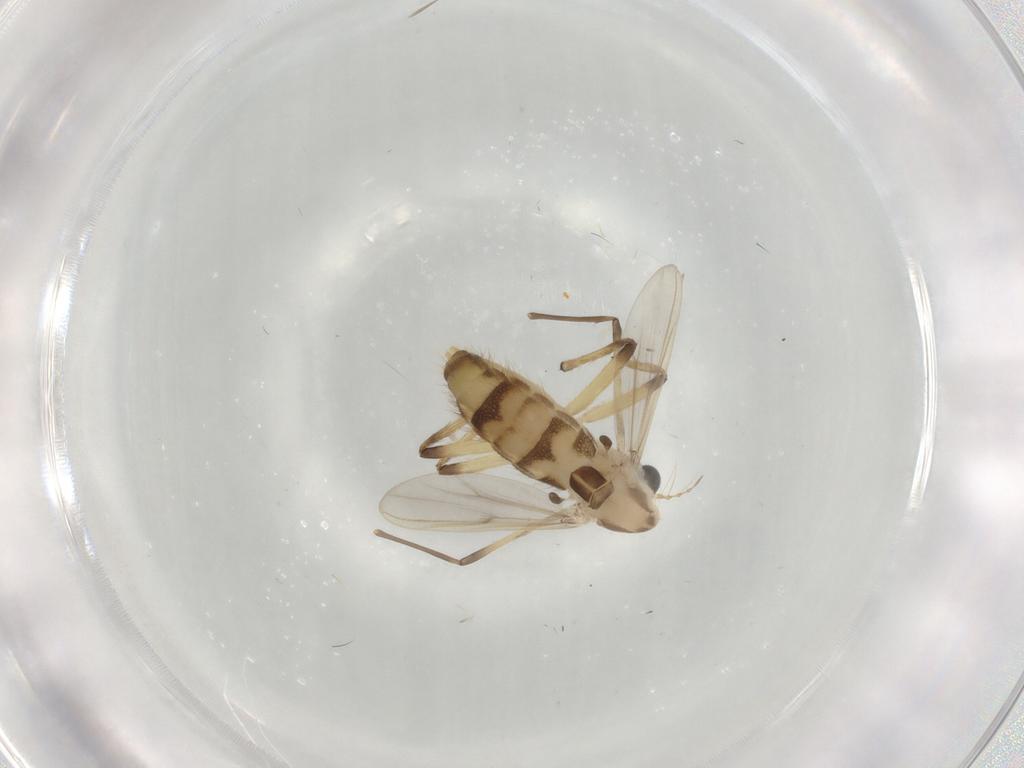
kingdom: Animalia
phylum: Arthropoda
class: Insecta
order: Diptera
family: Chironomidae
